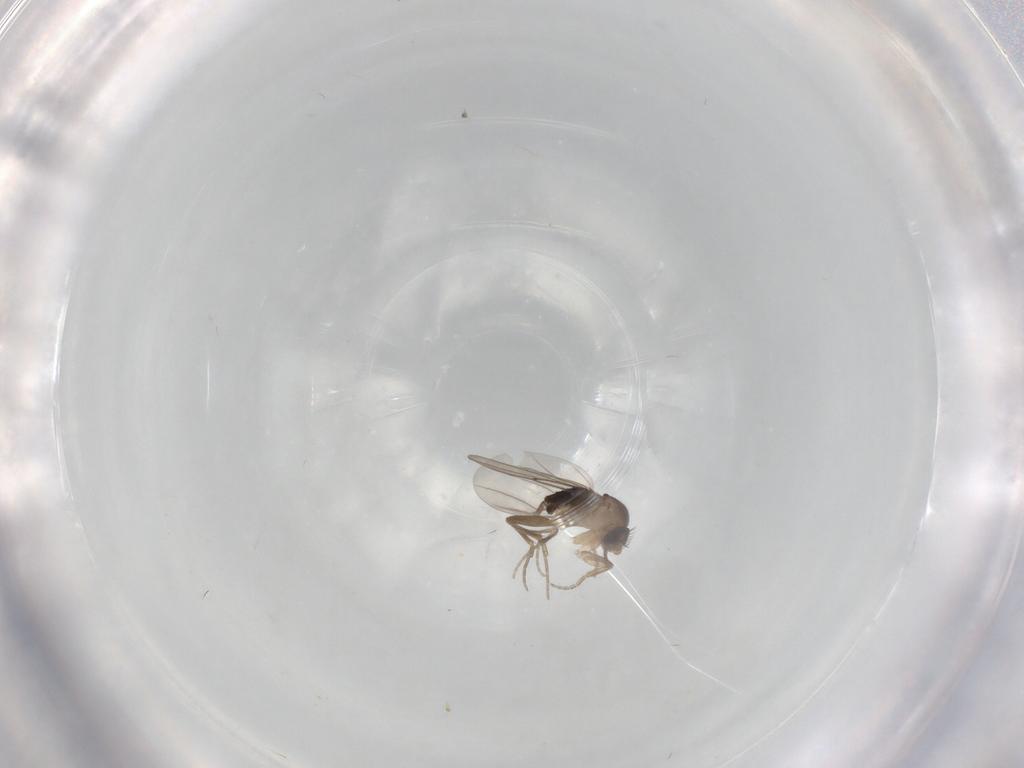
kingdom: Animalia
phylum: Arthropoda
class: Insecta
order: Diptera
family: Phoridae
